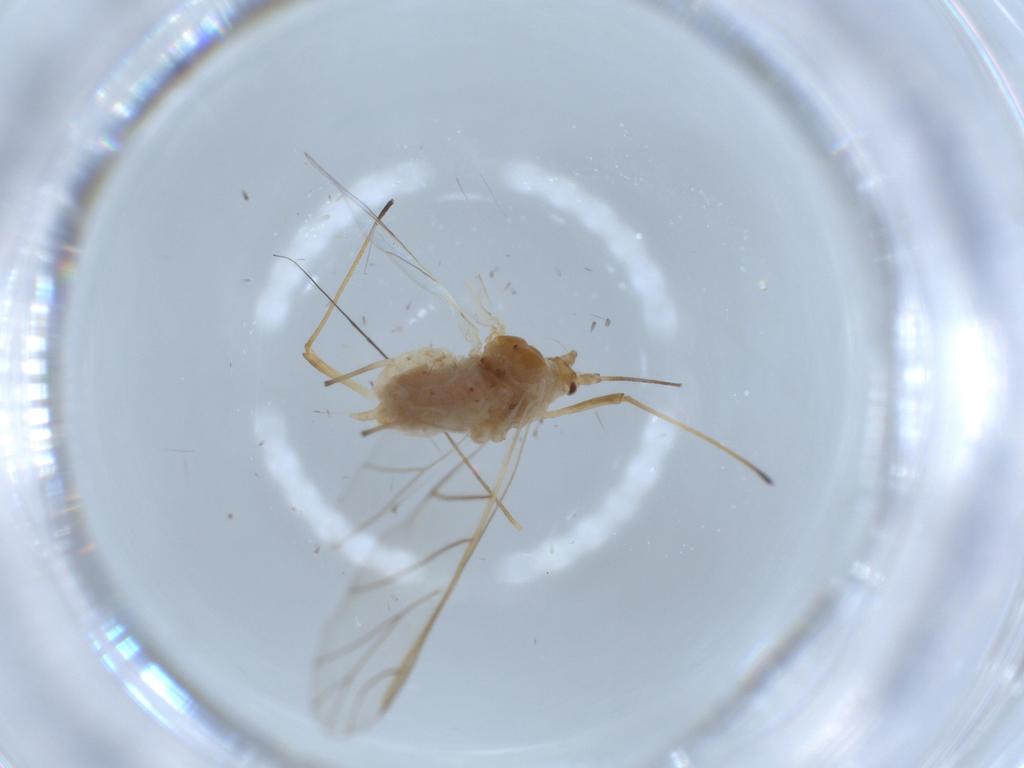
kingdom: Animalia
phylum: Arthropoda
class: Insecta
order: Hemiptera
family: Aphididae
